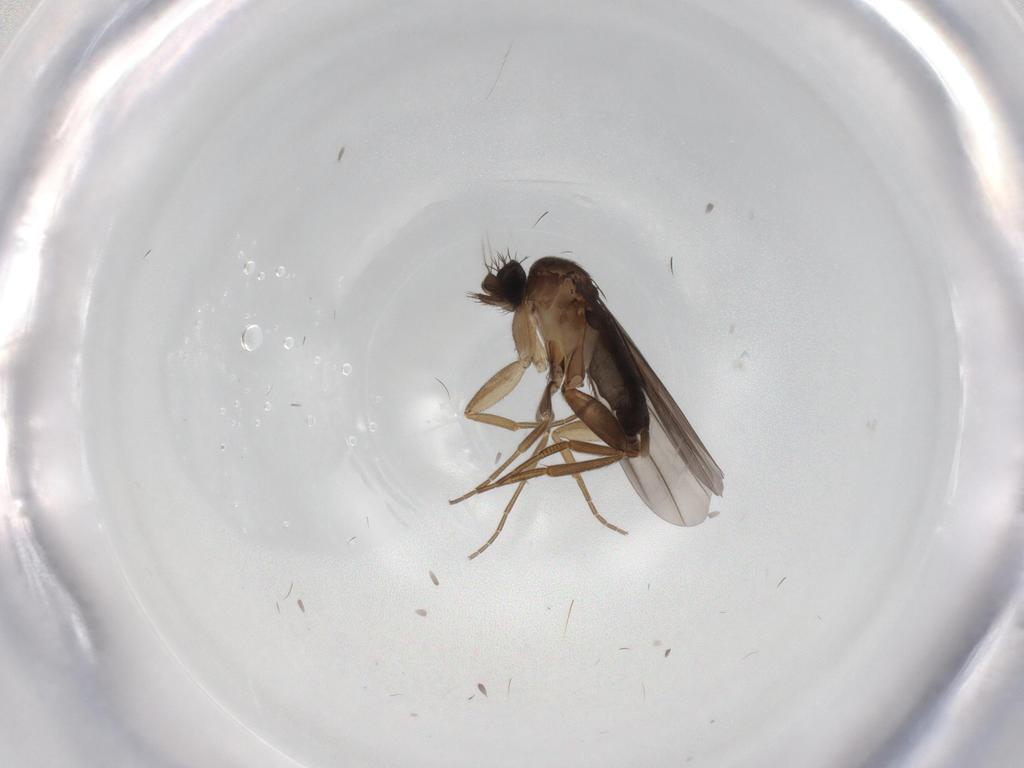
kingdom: Animalia
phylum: Arthropoda
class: Insecta
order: Diptera
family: Phoridae
